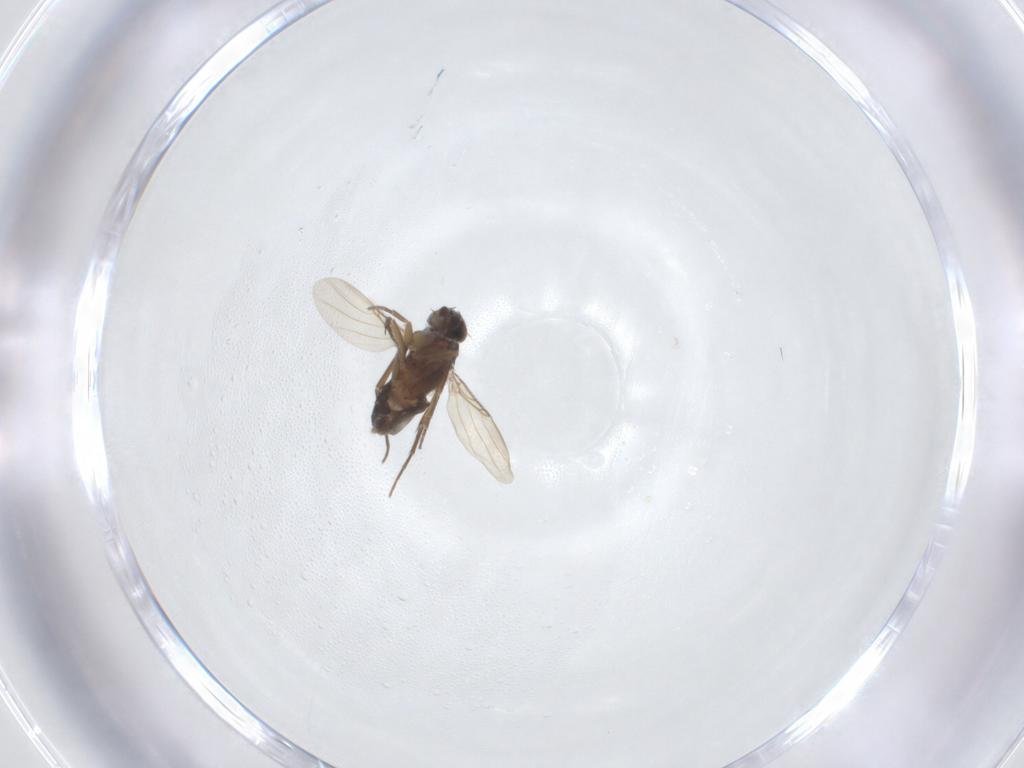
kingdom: Animalia
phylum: Arthropoda
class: Insecta
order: Diptera
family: Phoridae
